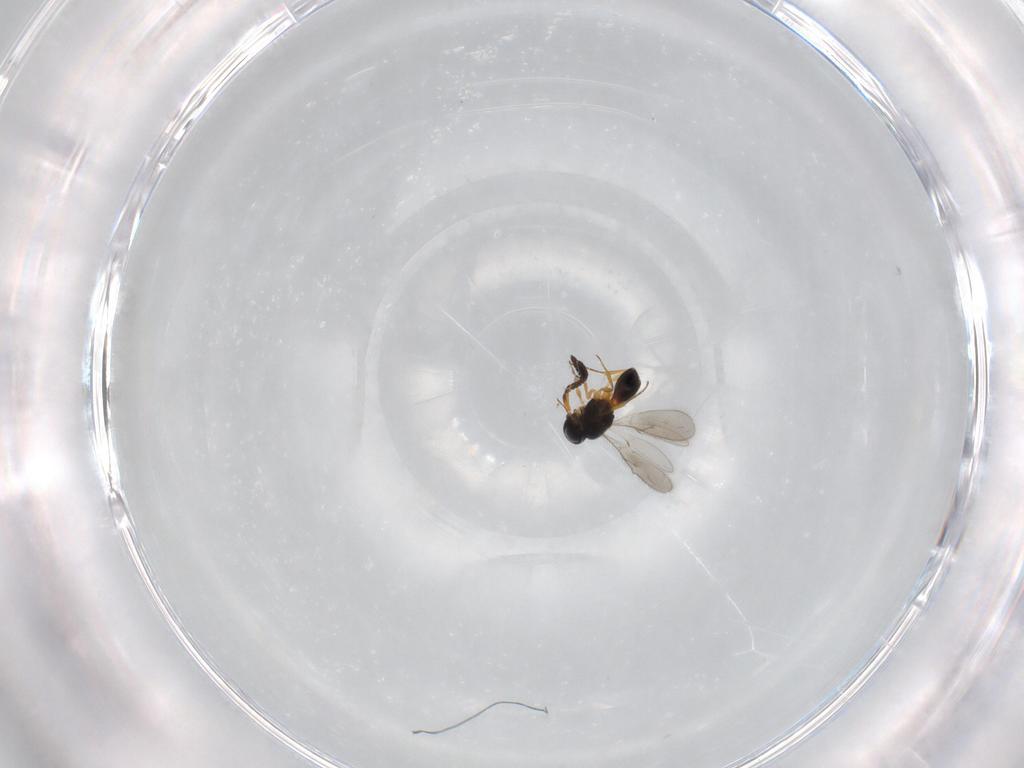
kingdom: Animalia
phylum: Arthropoda
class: Insecta
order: Hymenoptera
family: Scelionidae
